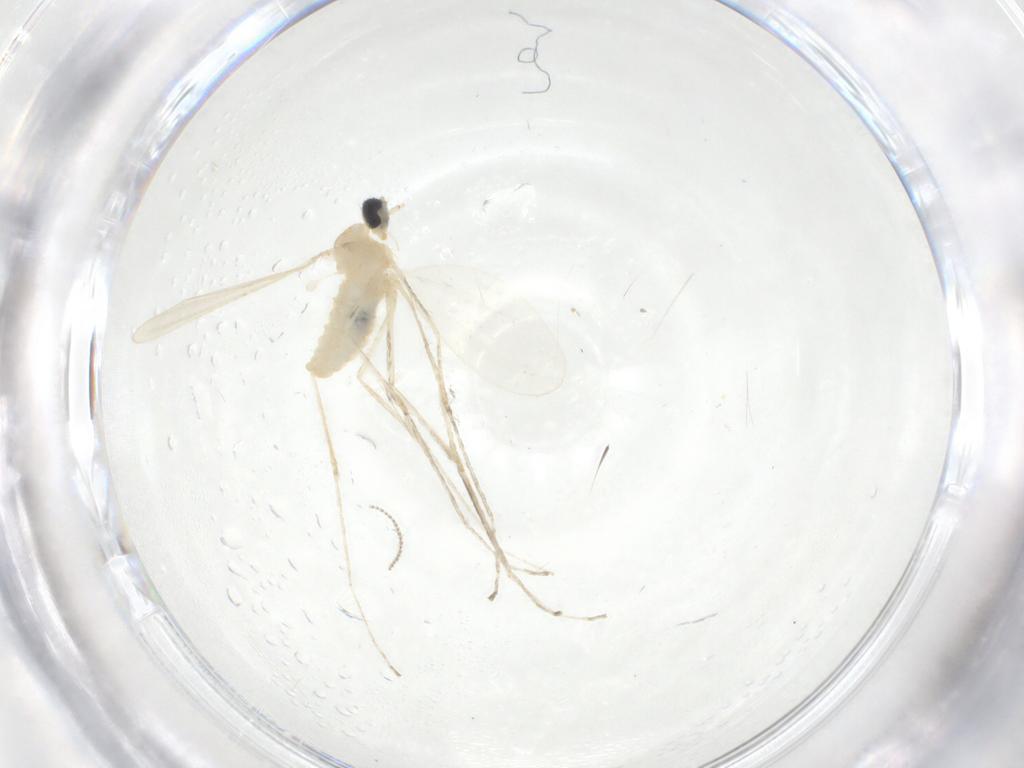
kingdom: Animalia
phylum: Arthropoda
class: Insecta
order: Diptera
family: Cecidomyiidae
